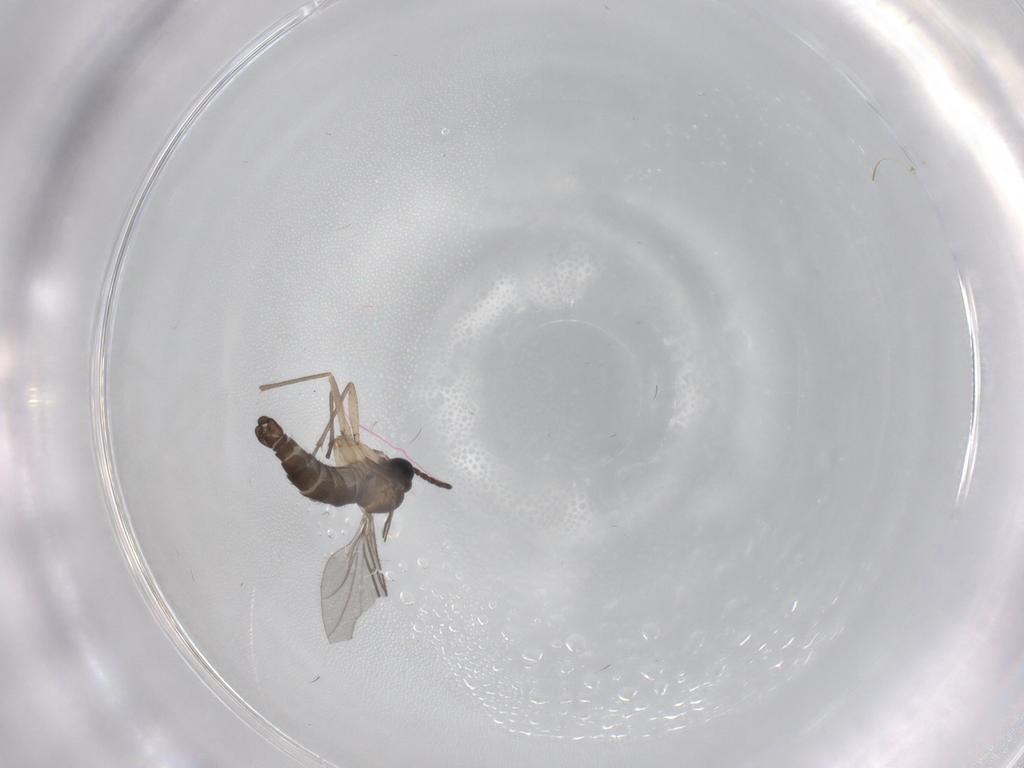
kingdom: Animalia
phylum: Arthropoda
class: Insecta
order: Diptera
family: Sciaridae
